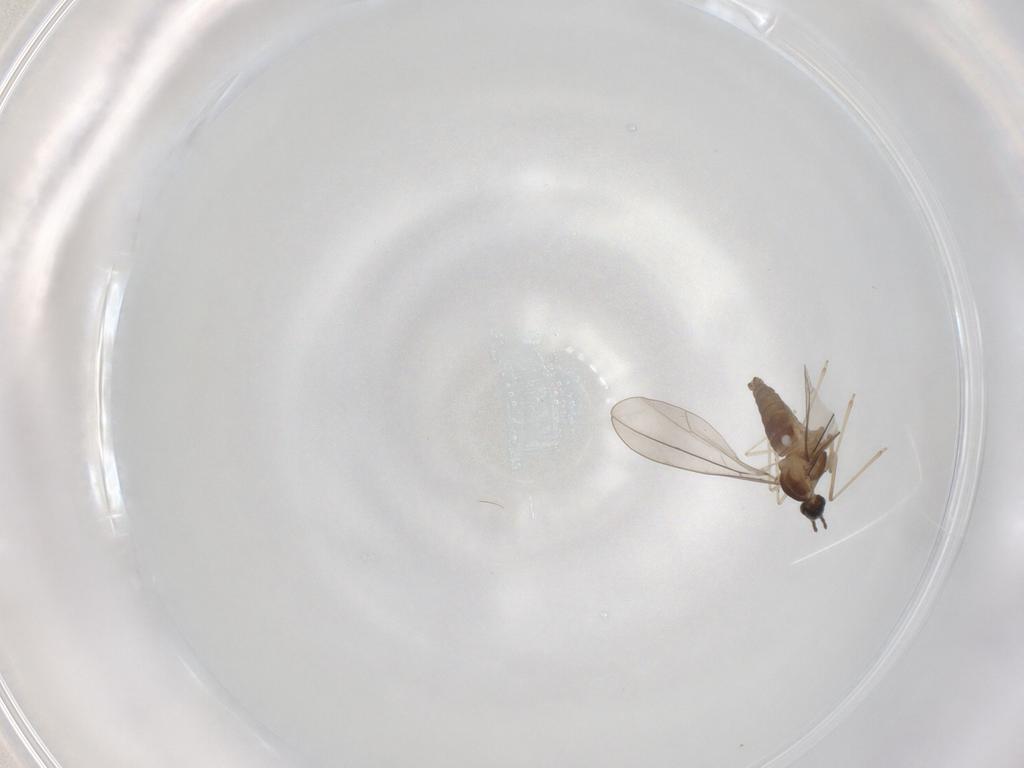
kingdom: Animalia
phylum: Arthropoda
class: Insecta
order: Diptera
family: Cecidomyiidae
